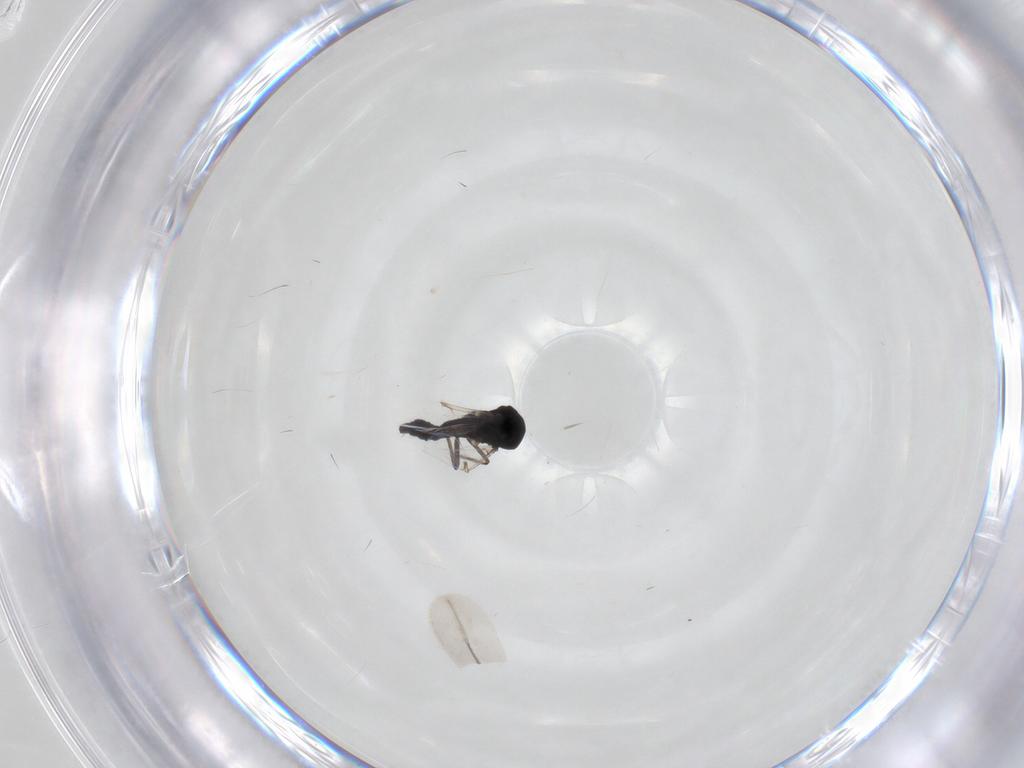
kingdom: Animalia
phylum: Arthropoda
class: Insecta
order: Diptera
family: Ceratopogonidae
